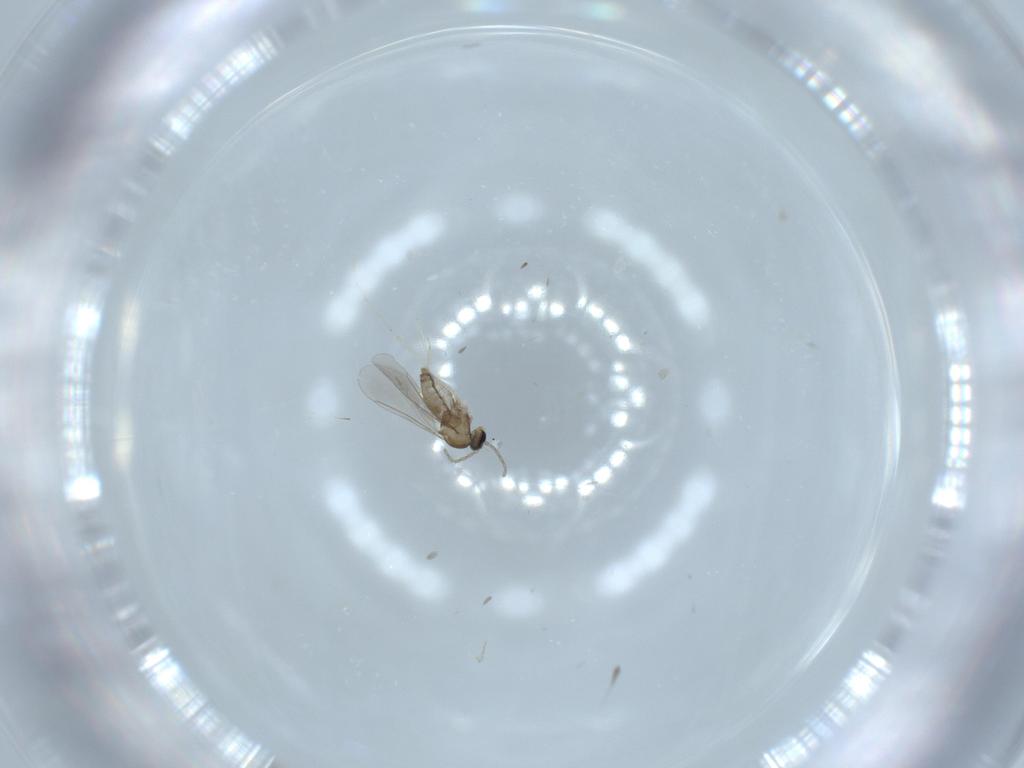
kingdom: Animalia
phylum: Arthropoda
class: Insecta
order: Diptera
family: Cecidomyiidae
